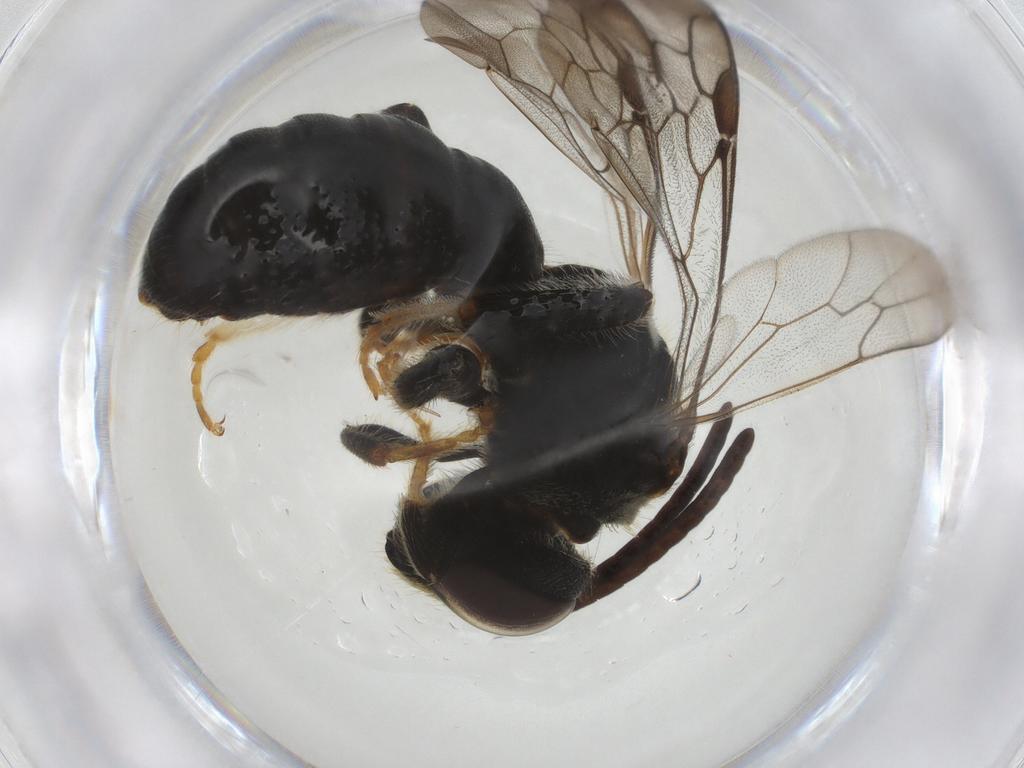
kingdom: Animalia
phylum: Arthropoda
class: Insecta
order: Hymenoptera
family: Halictidae
